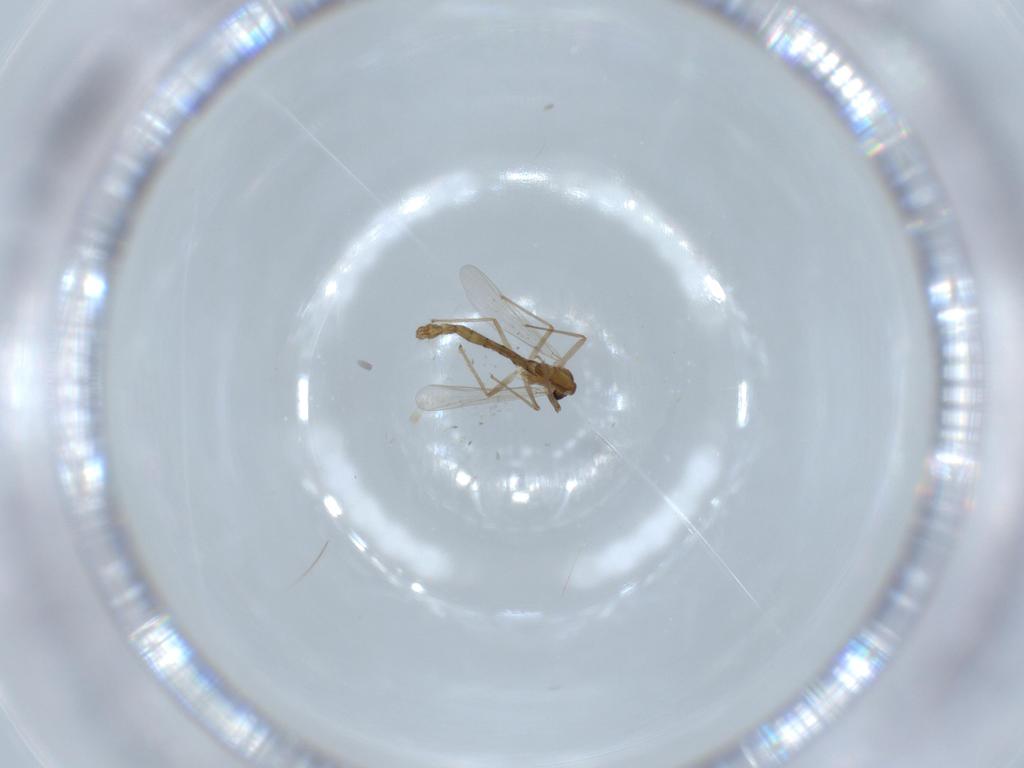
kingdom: Animalia
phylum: Arthropoda
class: Insecta
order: Diptera
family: Chironomidae
